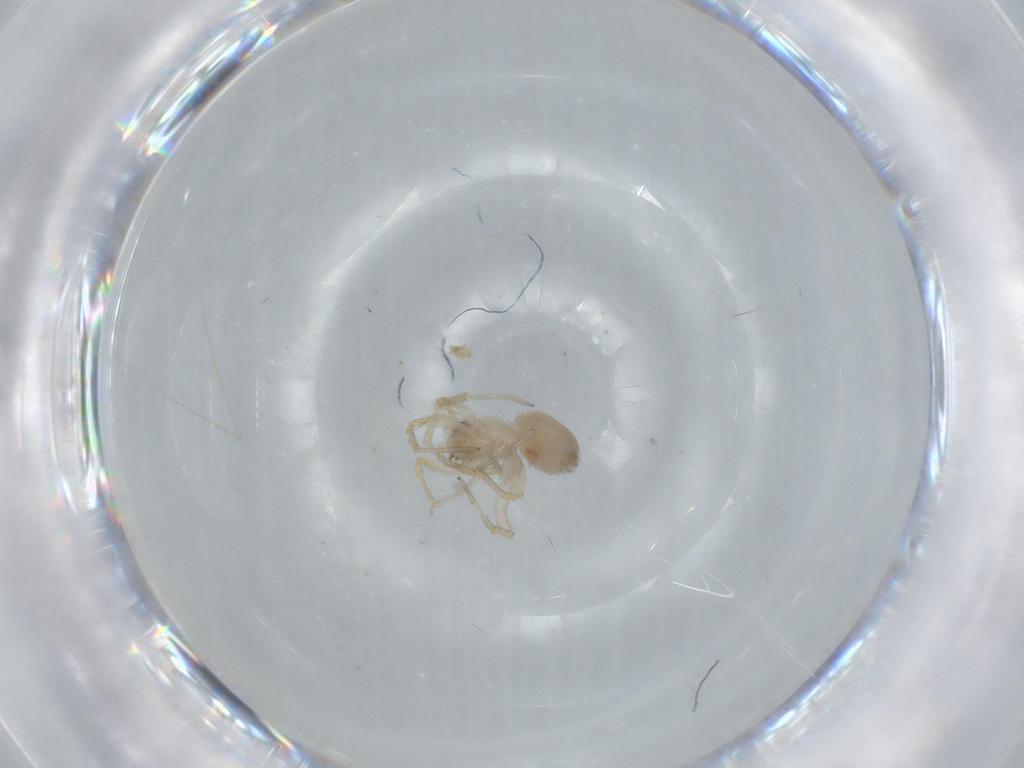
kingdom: Animalia
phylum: Arthropoda
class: Arachnida
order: Araneae
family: Oonopidae
